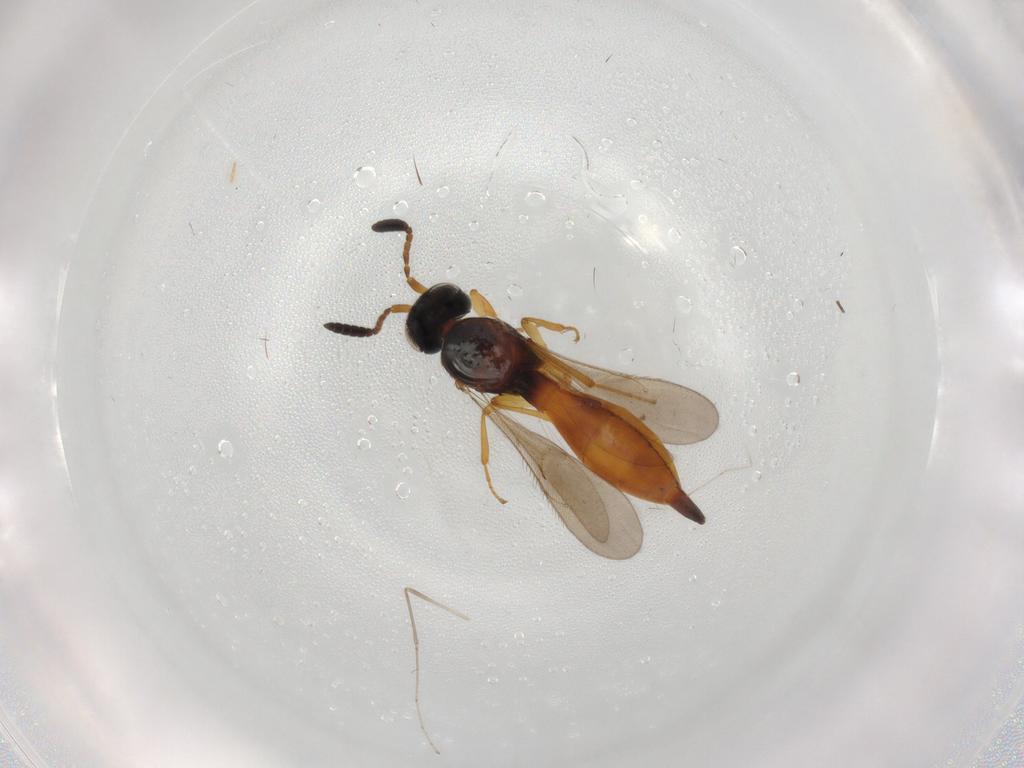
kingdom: Animalia
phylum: Arthropoda
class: Insecta
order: Hymenoptera
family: Scelionidae
